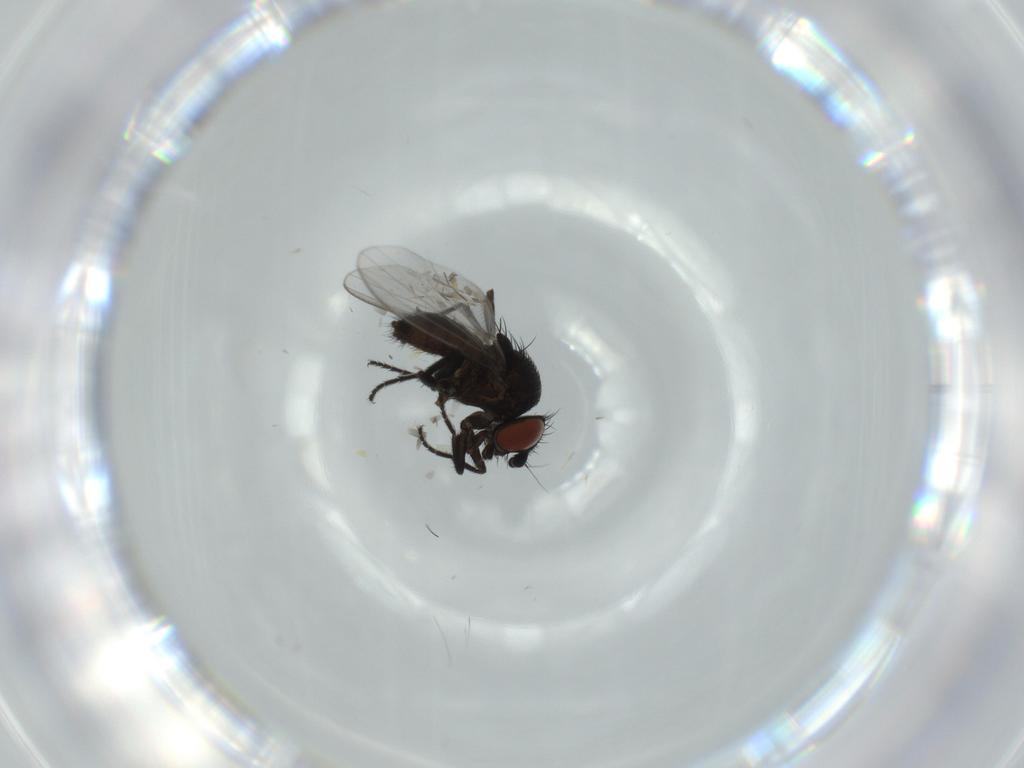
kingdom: Animalia
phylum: Arthropoda
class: Insecta
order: Diptera
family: Milichiidae
